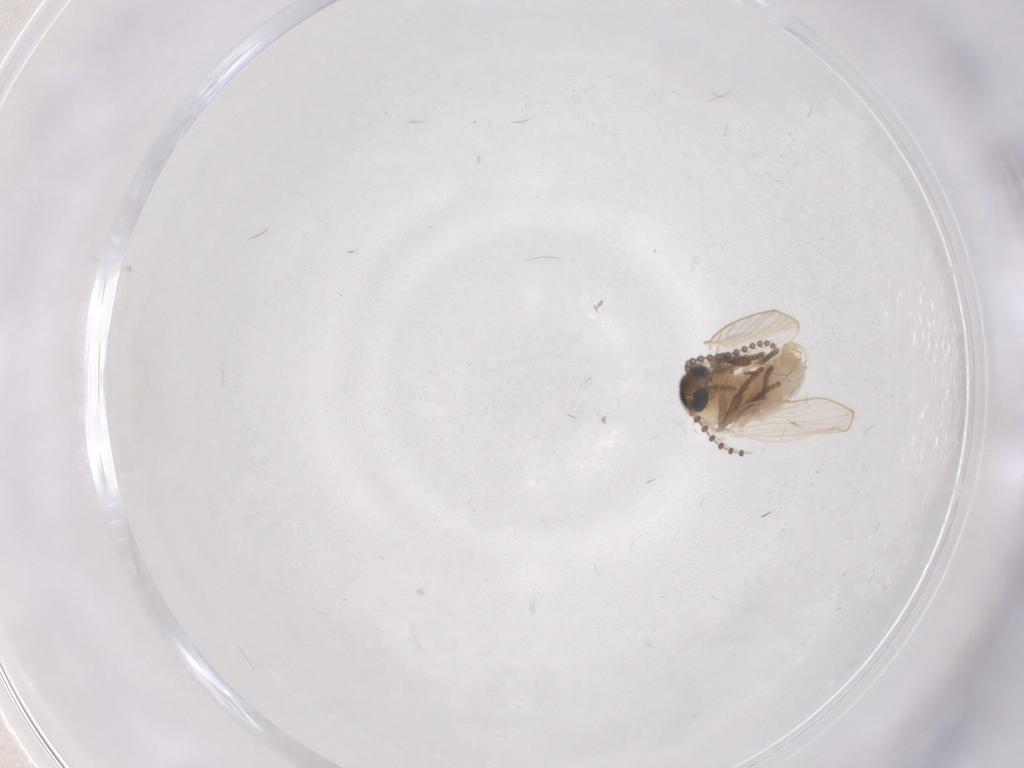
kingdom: Animalia
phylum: Arthropoda
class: Insecta
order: Diptera
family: Psychodidae
